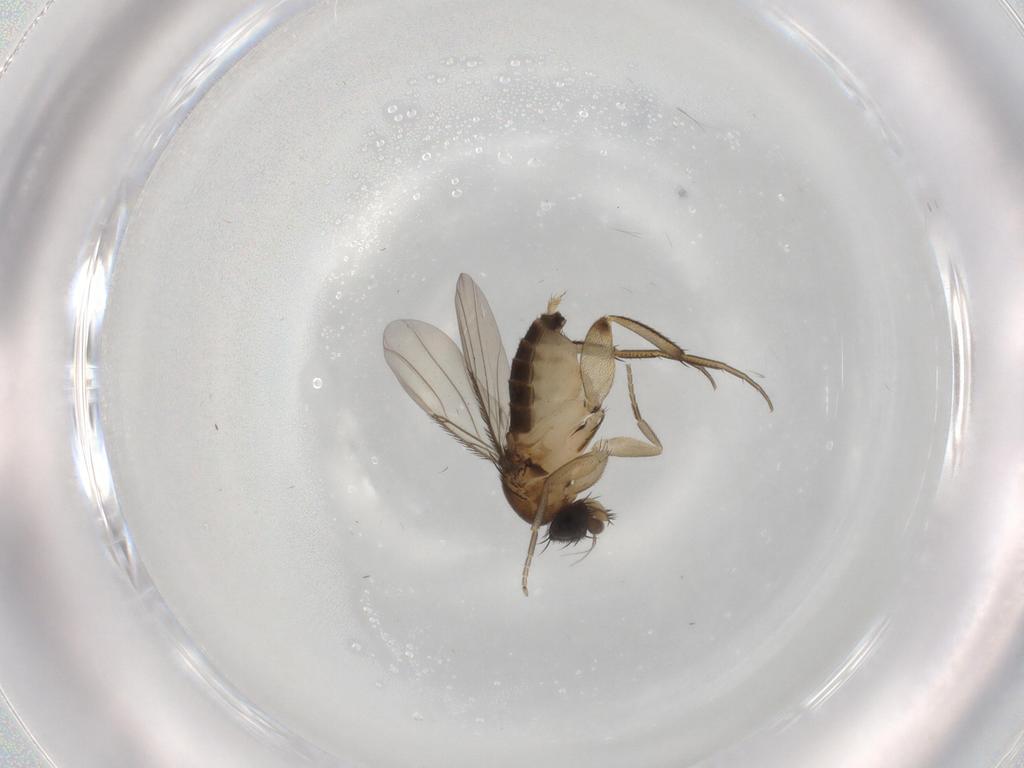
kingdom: Animalia
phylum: Arthropoda
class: Insecta
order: Diptera
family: Phoridae
